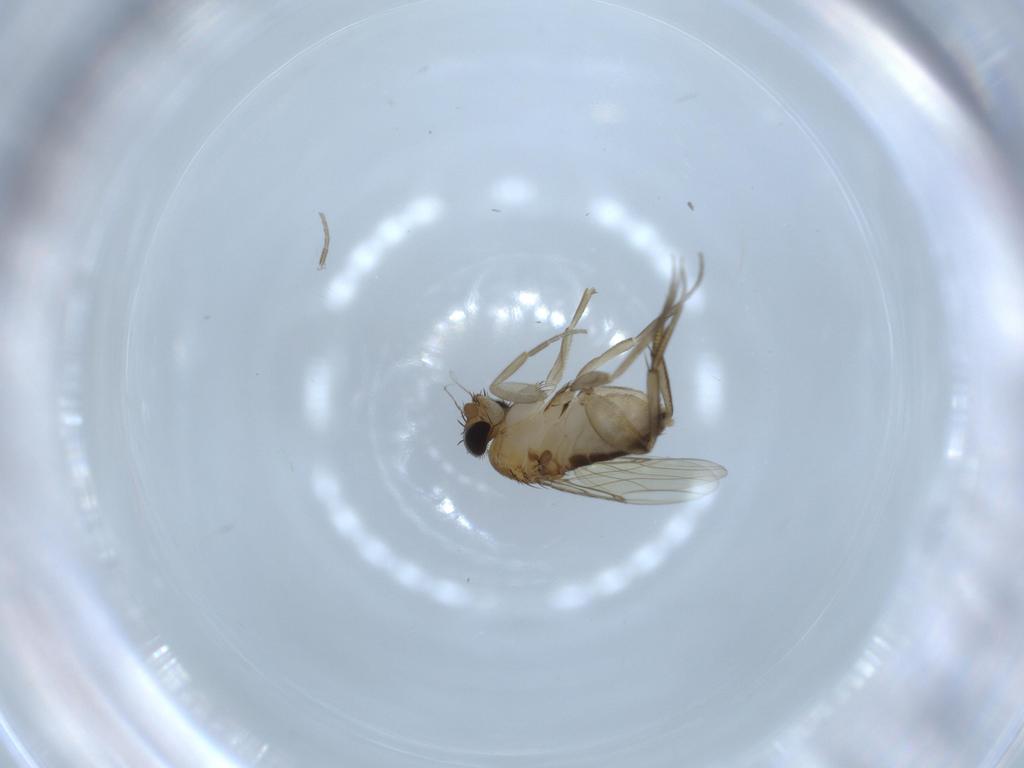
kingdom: Animalia
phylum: Arthropoda
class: Insecta
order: Diptera
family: Phoridae
